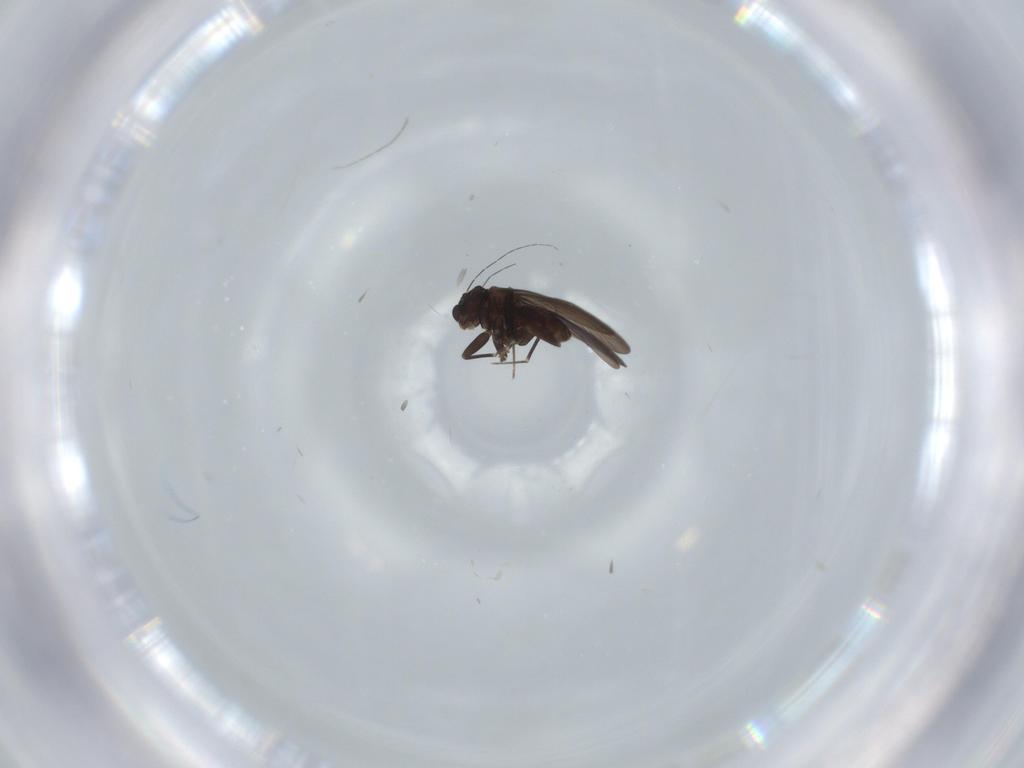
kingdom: Animalia
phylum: Arthropoda
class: Insecta
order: Psocodea
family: Lepidopsocidae
